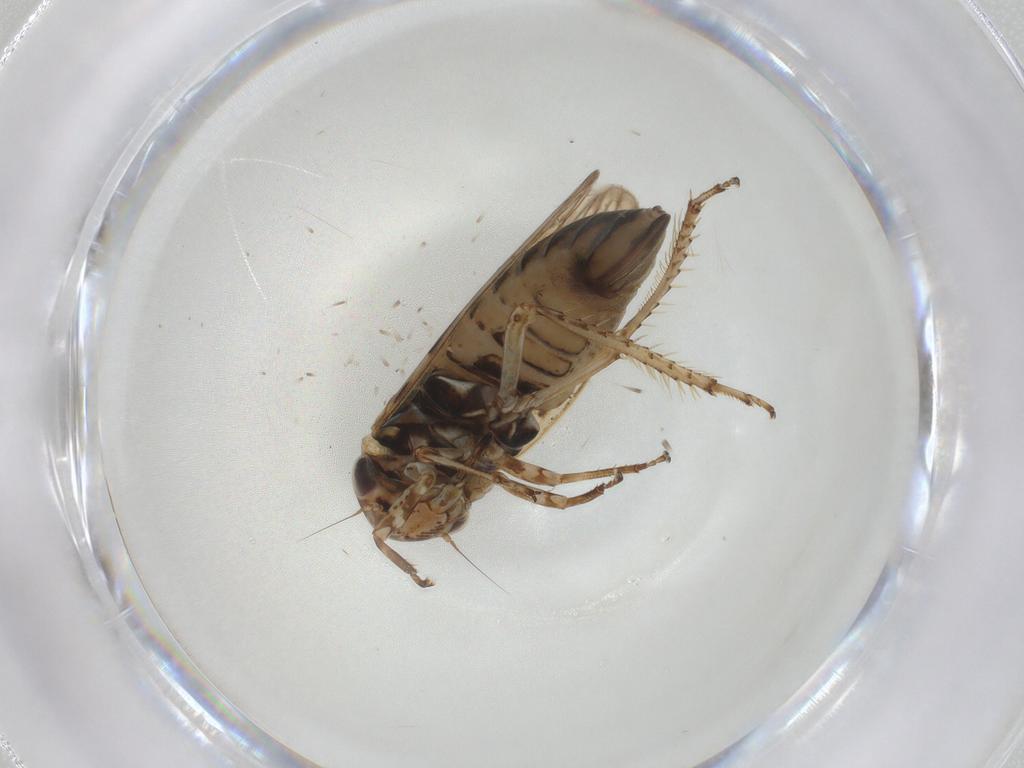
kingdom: Animalia
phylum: Arthropoda
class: Insecta
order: Hemiptera
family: Cicadellidae
